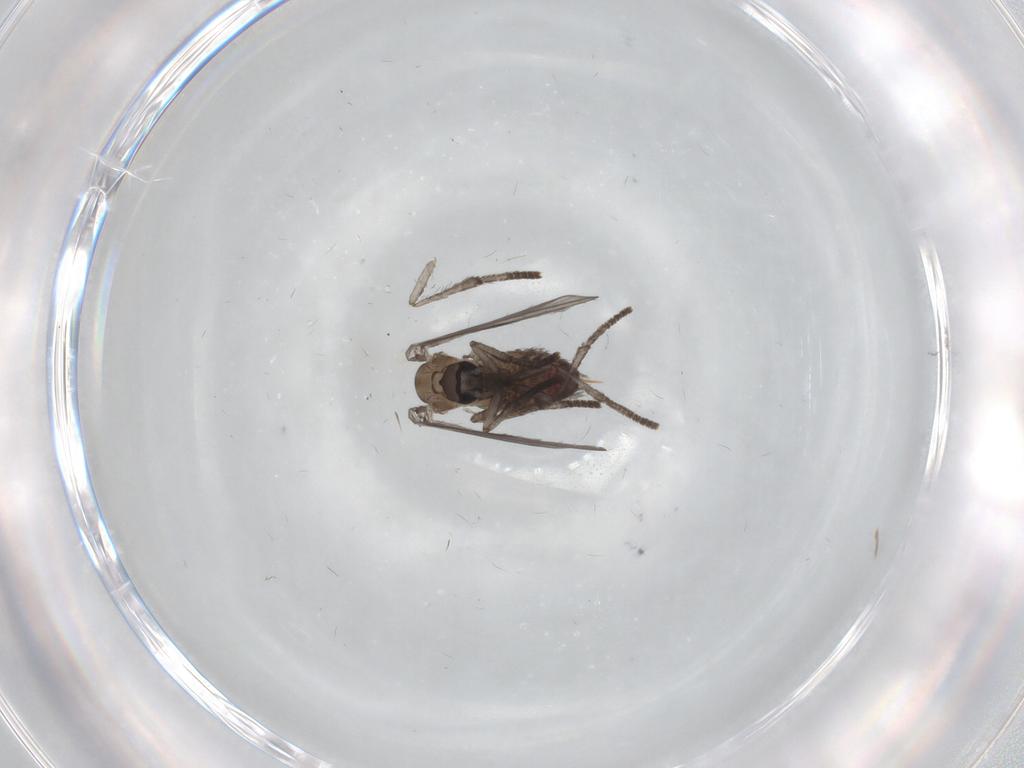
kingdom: Animalia
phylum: Arthropoda
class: Insecta
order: Diptera
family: Psychodidae
